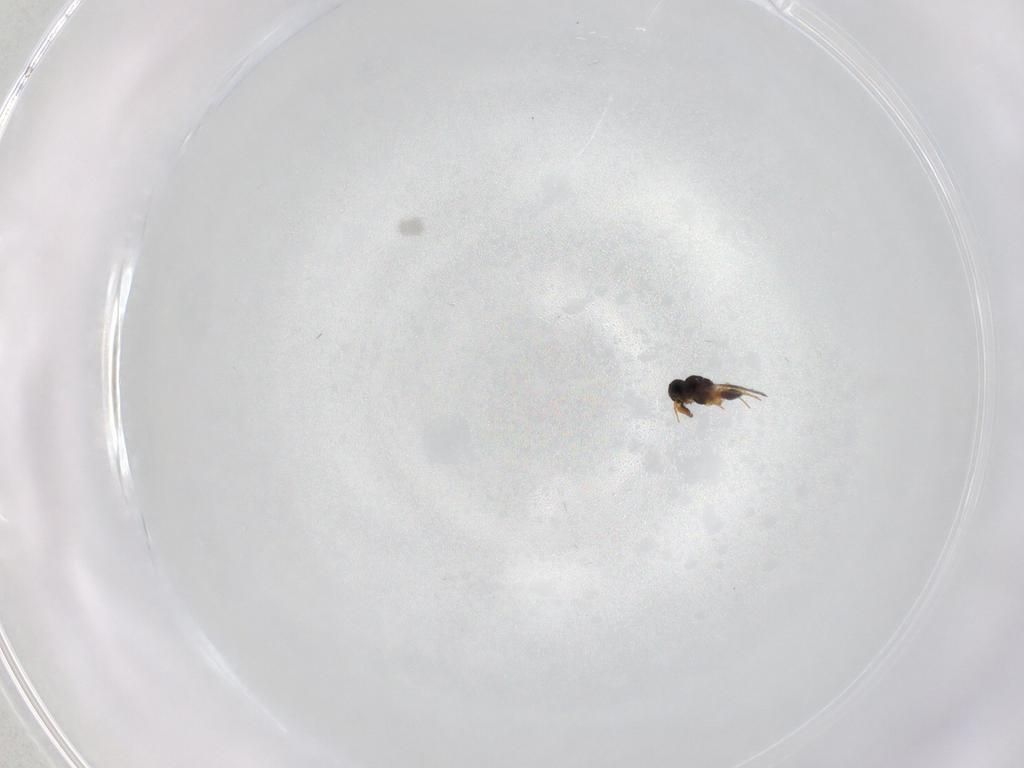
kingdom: Animalia
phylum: Arthropoda
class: Insecta
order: Hymenoptera
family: Platygastridae
